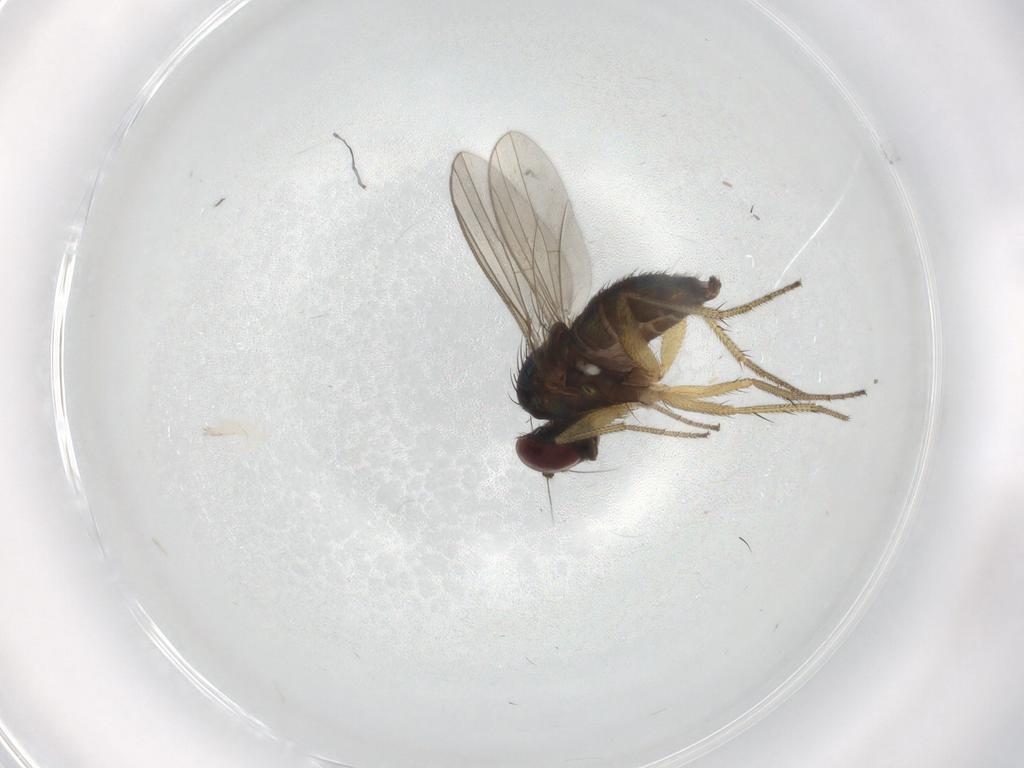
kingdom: Animalia
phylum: Arthropoda
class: Insecta
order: Diptera
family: Dolichopodidae
